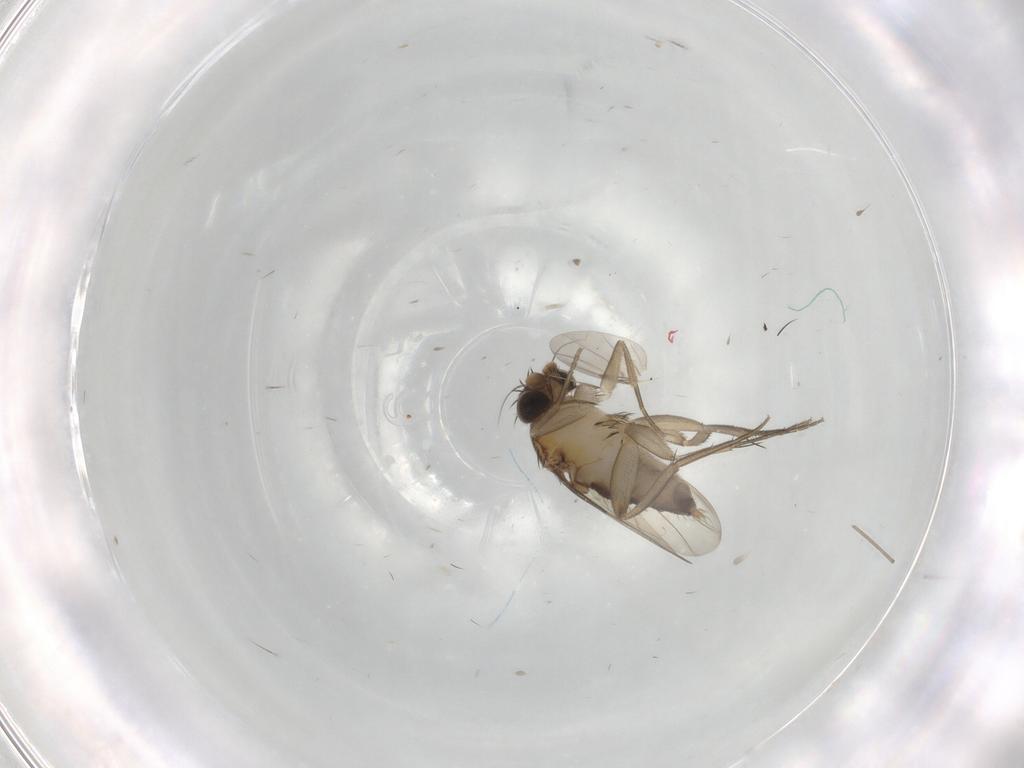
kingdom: Animalia
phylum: Arthropoda
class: Insecta
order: Diptera
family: Phoridae
